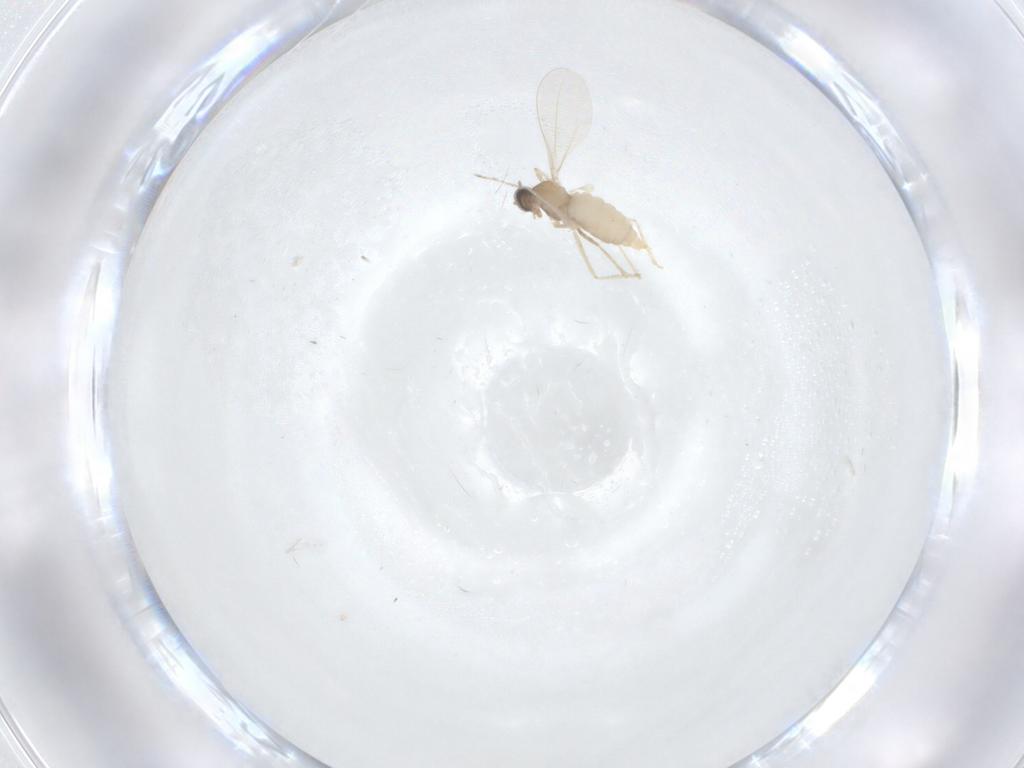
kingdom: Animalia
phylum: Arthropoda
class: Insecta
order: Diptera
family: Cecidomyiidae
